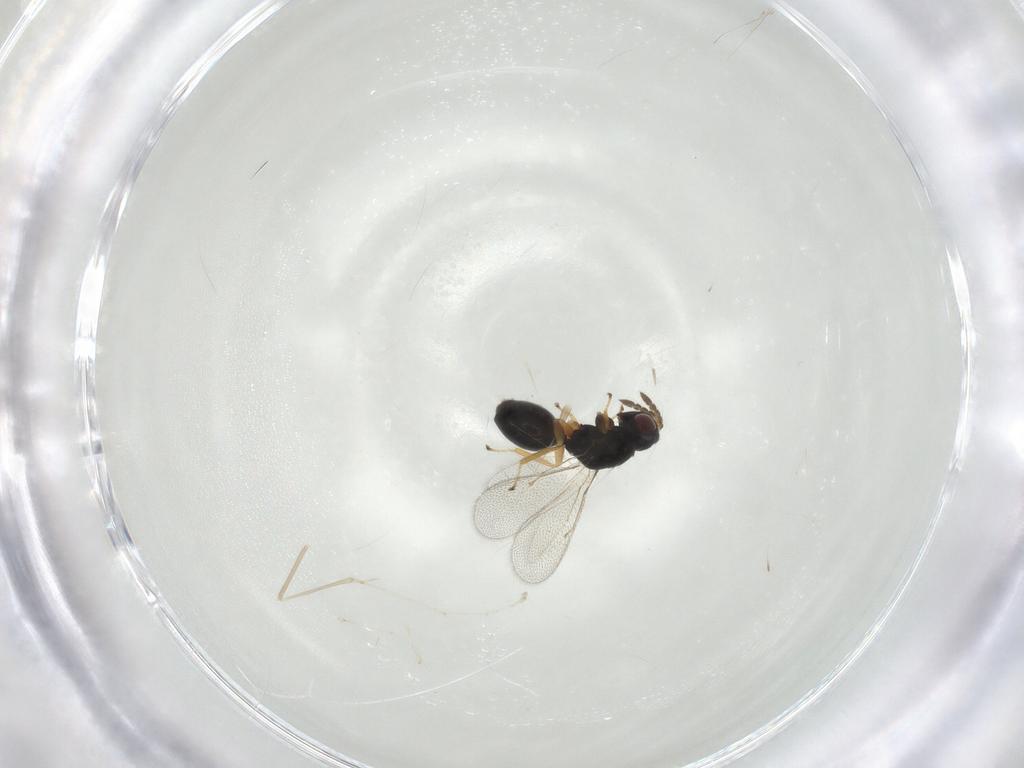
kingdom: Animalia
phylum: Arthropoda
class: Insecta
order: Hymenoptera
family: Eulophidae
